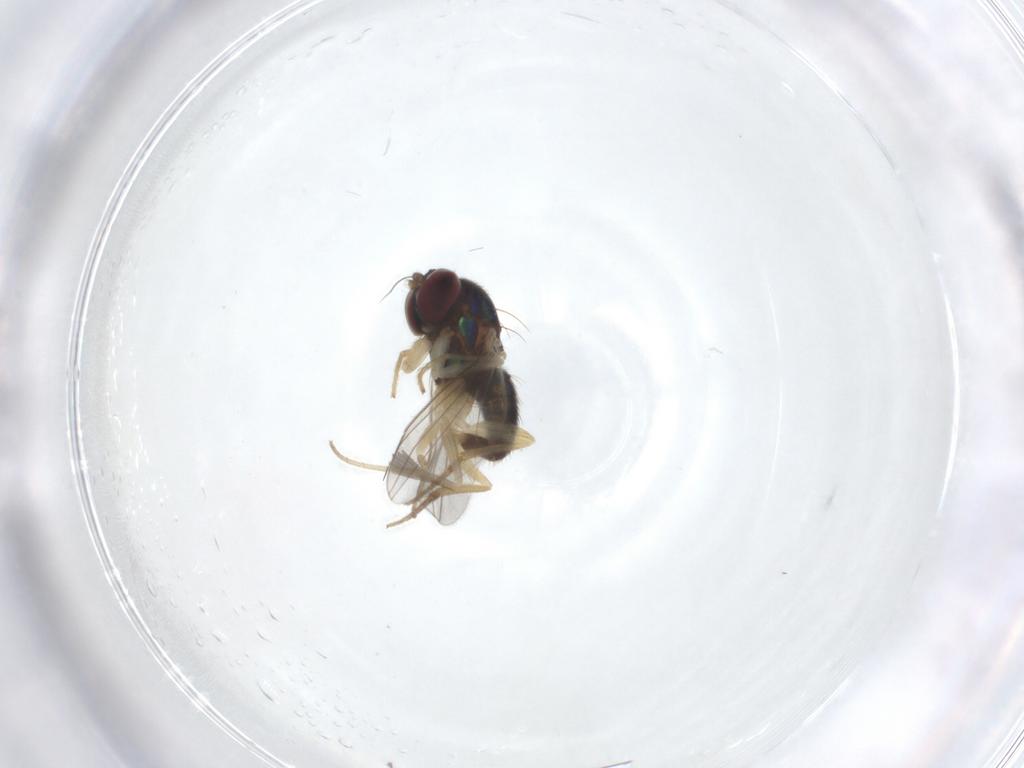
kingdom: Animalia
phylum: Arthropoda
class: Insecta
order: Diptera
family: Dolichopodidae
